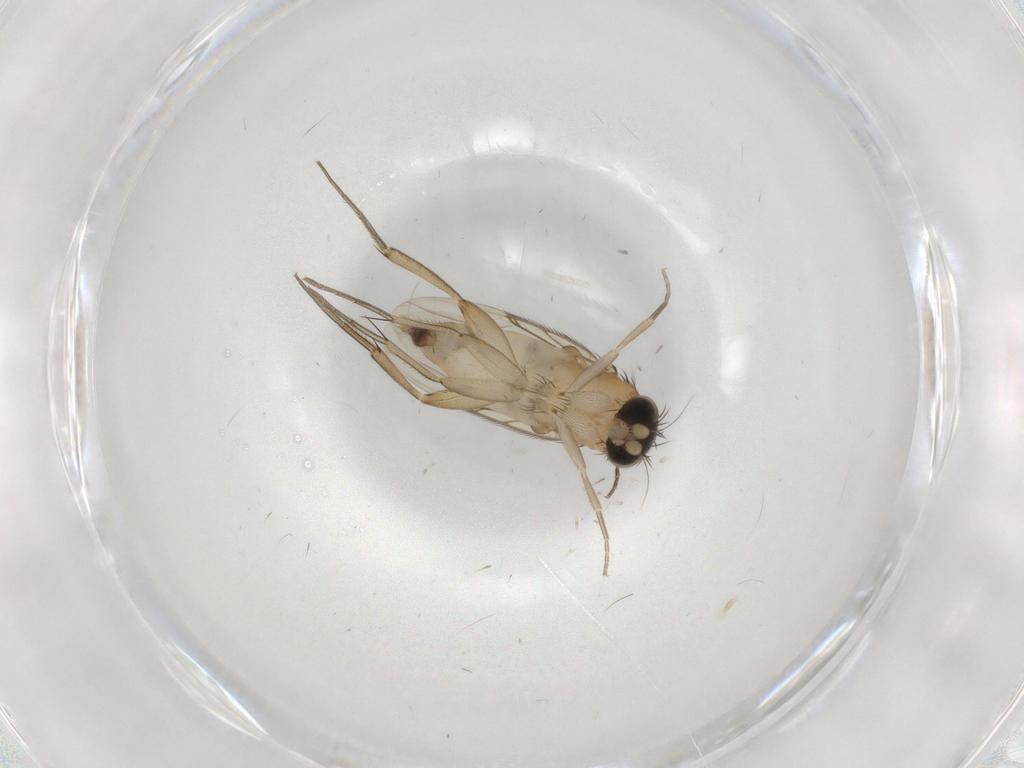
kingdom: Animalia
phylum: Arthropoda
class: Insecta
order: Diptera
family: Phoridae
